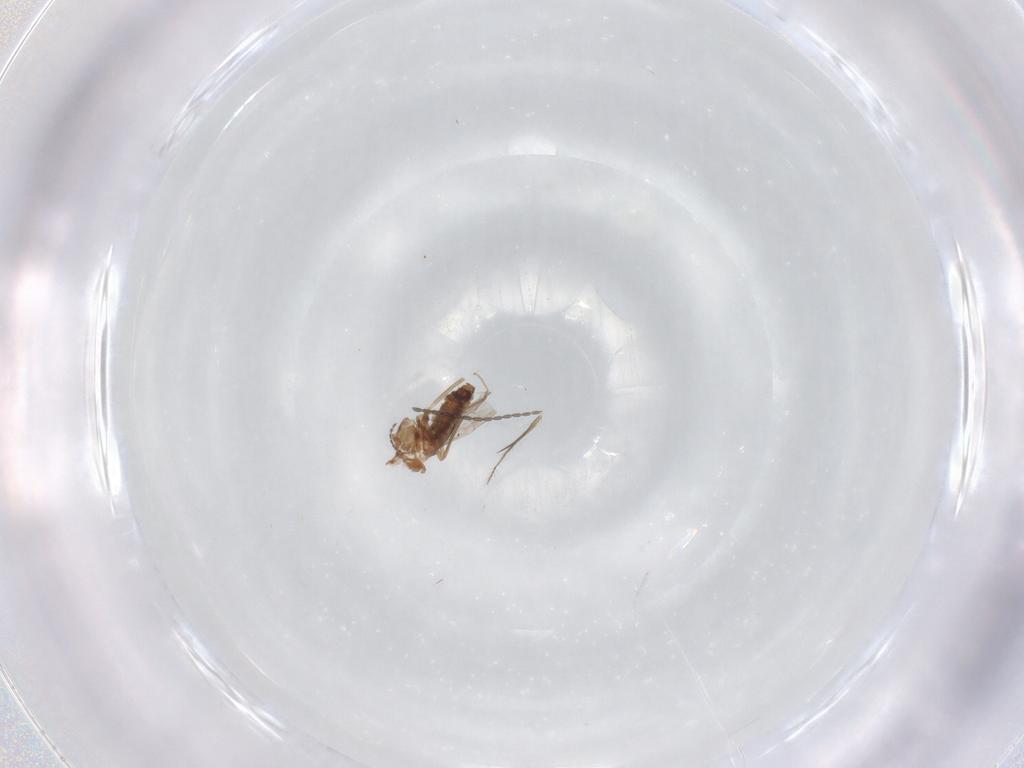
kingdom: Animalia
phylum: Arthropoda
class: Insecta
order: Diptera
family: Cecidomyiidae
